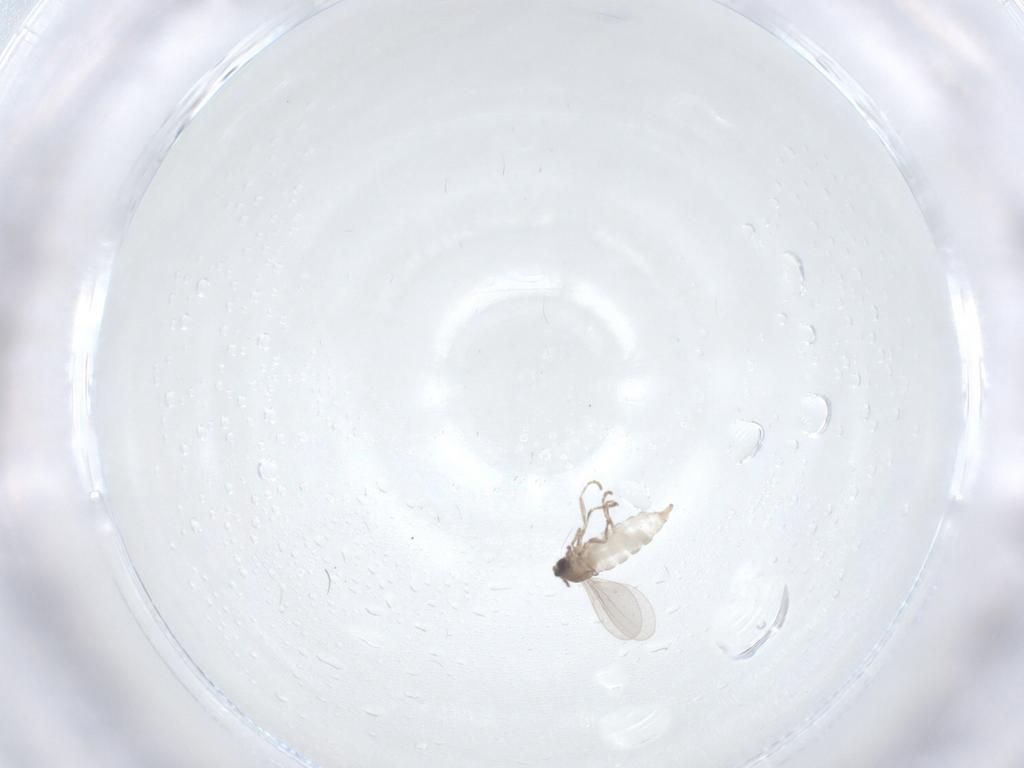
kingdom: Animalia
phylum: Arthropoda
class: Insecta
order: Diptera
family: Cecidomyiidae
